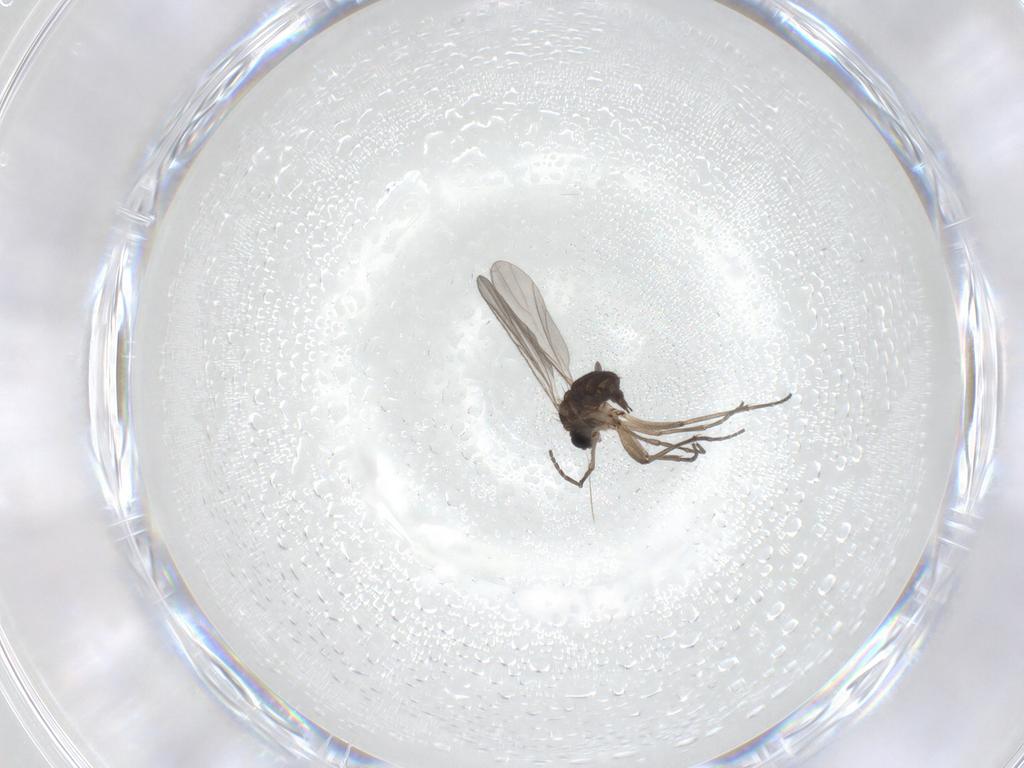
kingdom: Animalia
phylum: Arthropoda
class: Insecta
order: Diptera
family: Sciaridae
